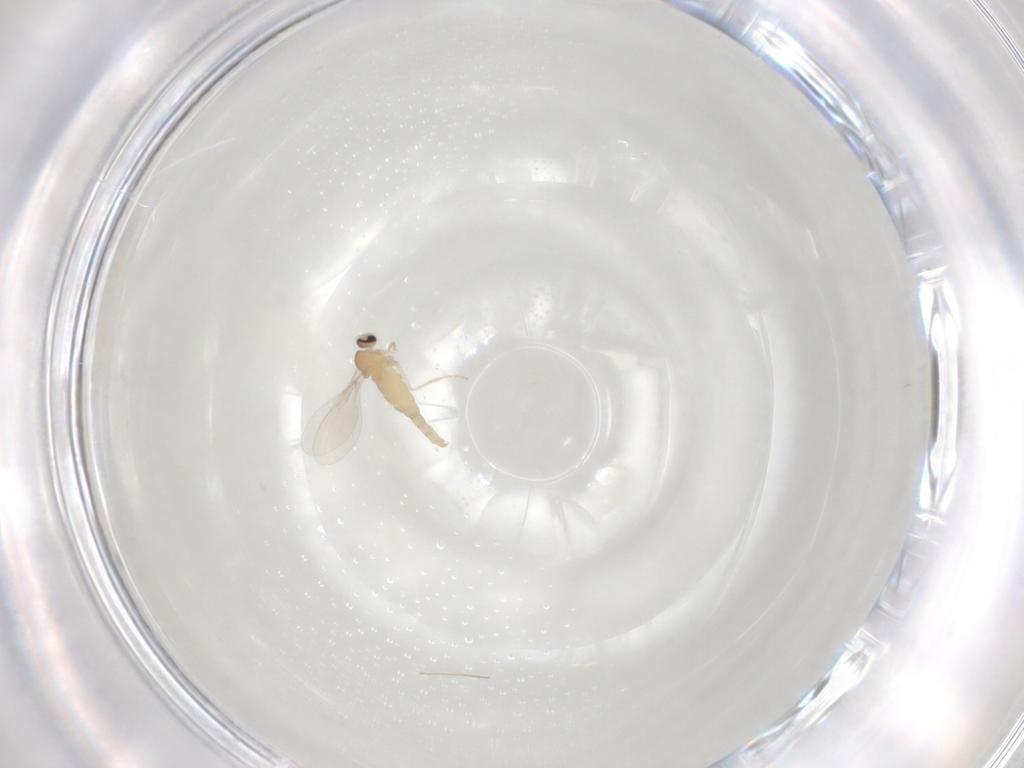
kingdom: Animalia
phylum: Arthropoda
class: Insecta
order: Diptera
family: Cecidomyiidae
